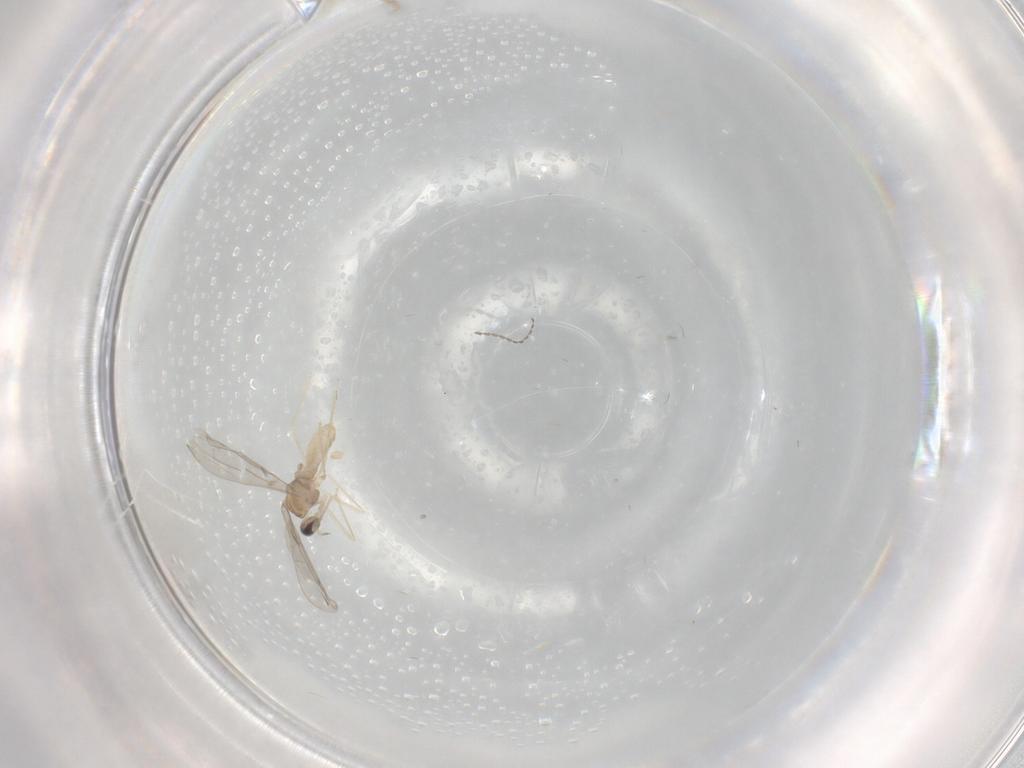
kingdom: Animalia
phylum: Arthropoda
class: Insecta
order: Diptera
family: Cecidomyiidae
